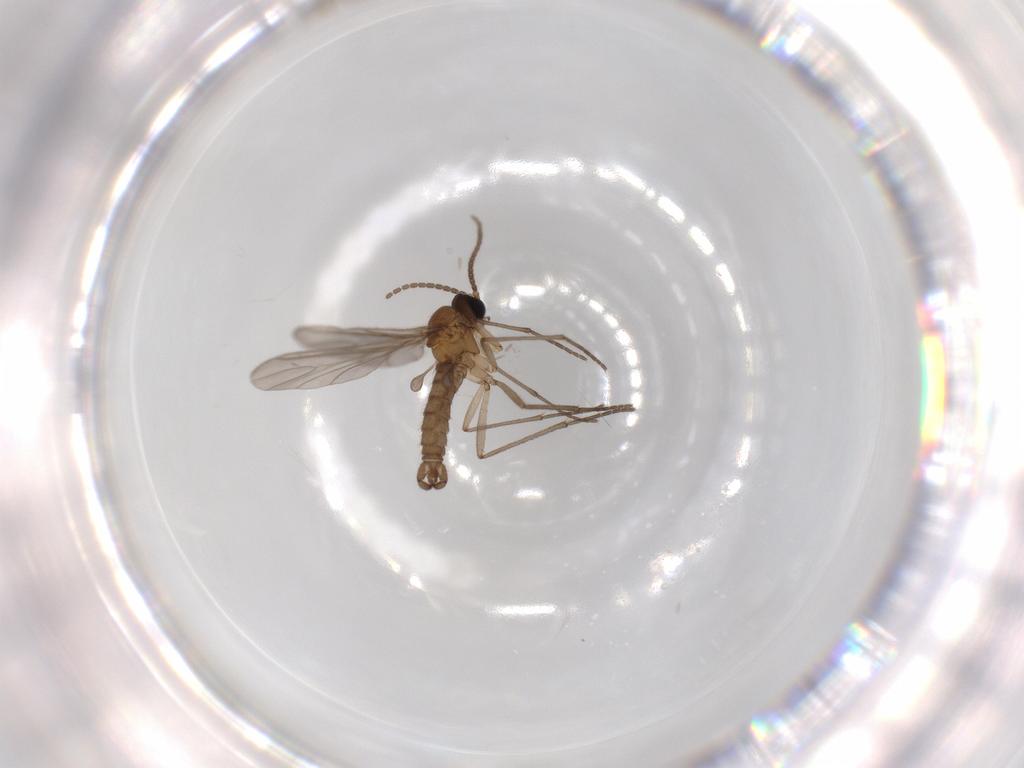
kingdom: Animalia
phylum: Arthropoda
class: Insecta
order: Diptera
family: Sciaridae
